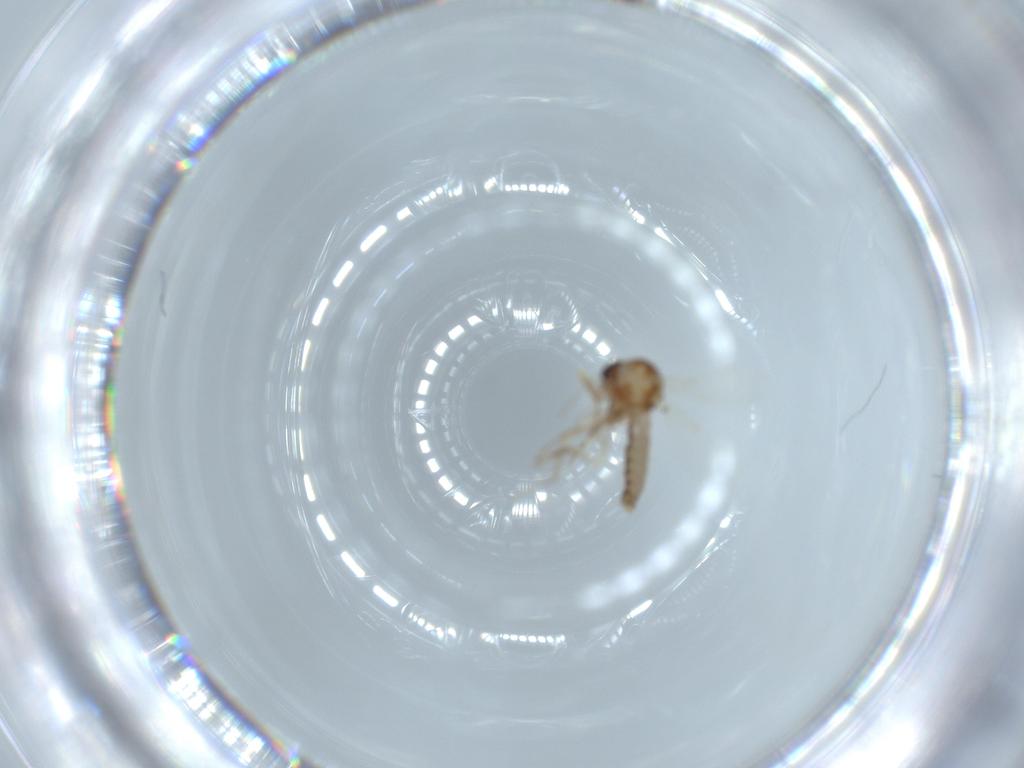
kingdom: Animalia
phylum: Arthropoda
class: Insecta
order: Diptera
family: Ceratopogonidae
